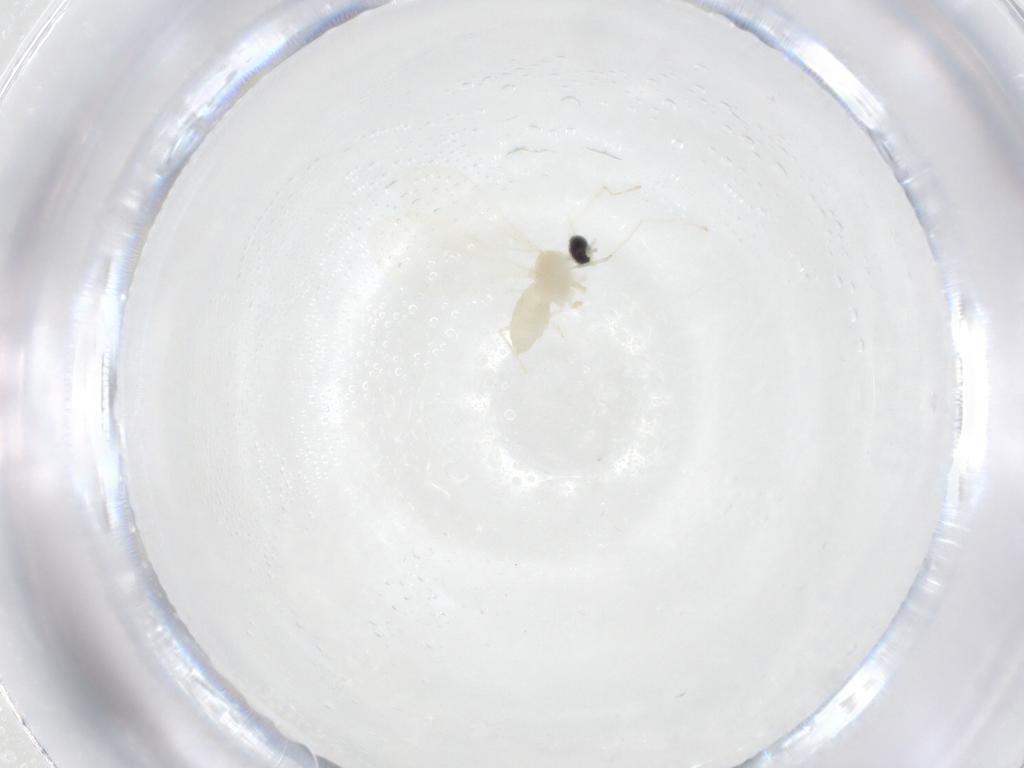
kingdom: Animalia
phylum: Arthropoda
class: Insecta
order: Diptera
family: Cecidomyiidae
